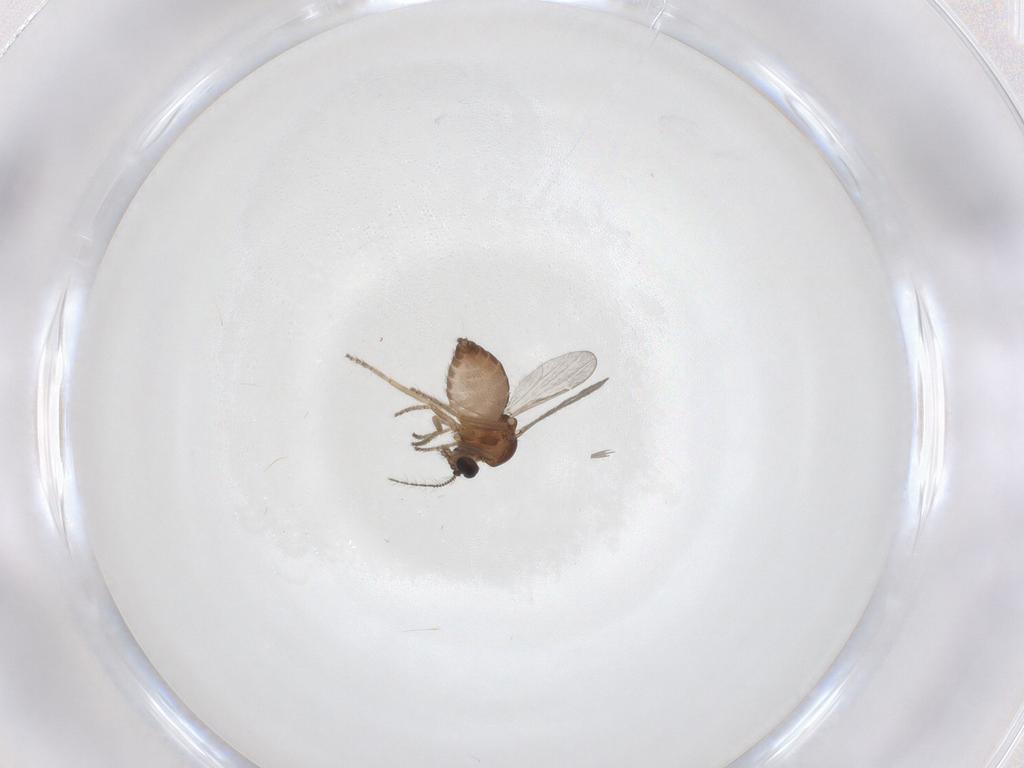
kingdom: Animalia
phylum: Arthropoda
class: Insecta
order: Diptera
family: Ceratopogonidae
